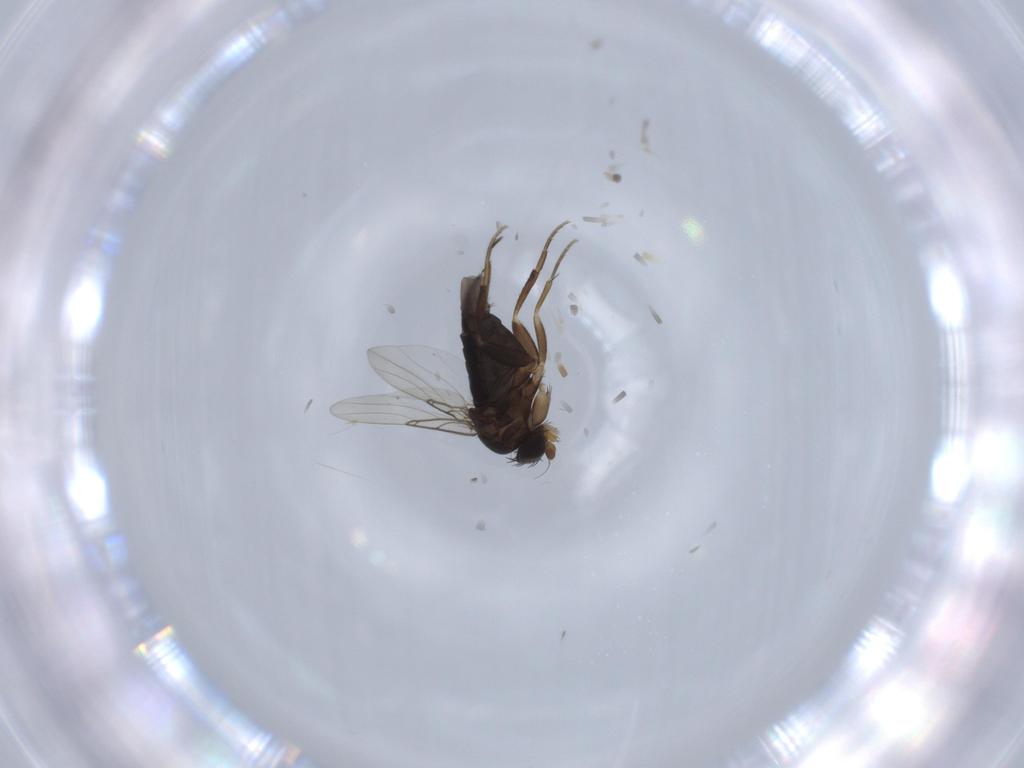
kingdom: Animalia
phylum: Arthropoda
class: Insecta
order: Diptera
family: Phoridae
